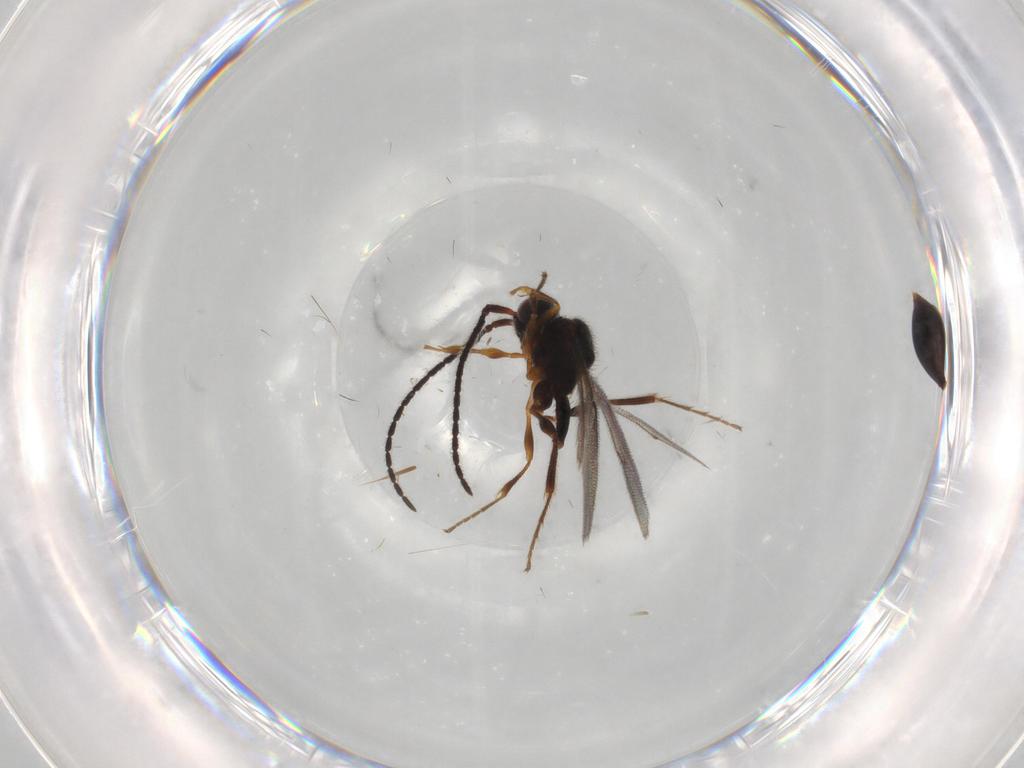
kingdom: Animalia
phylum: Arthropoda
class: Insecta
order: Hymenoptera
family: Diapriidae
